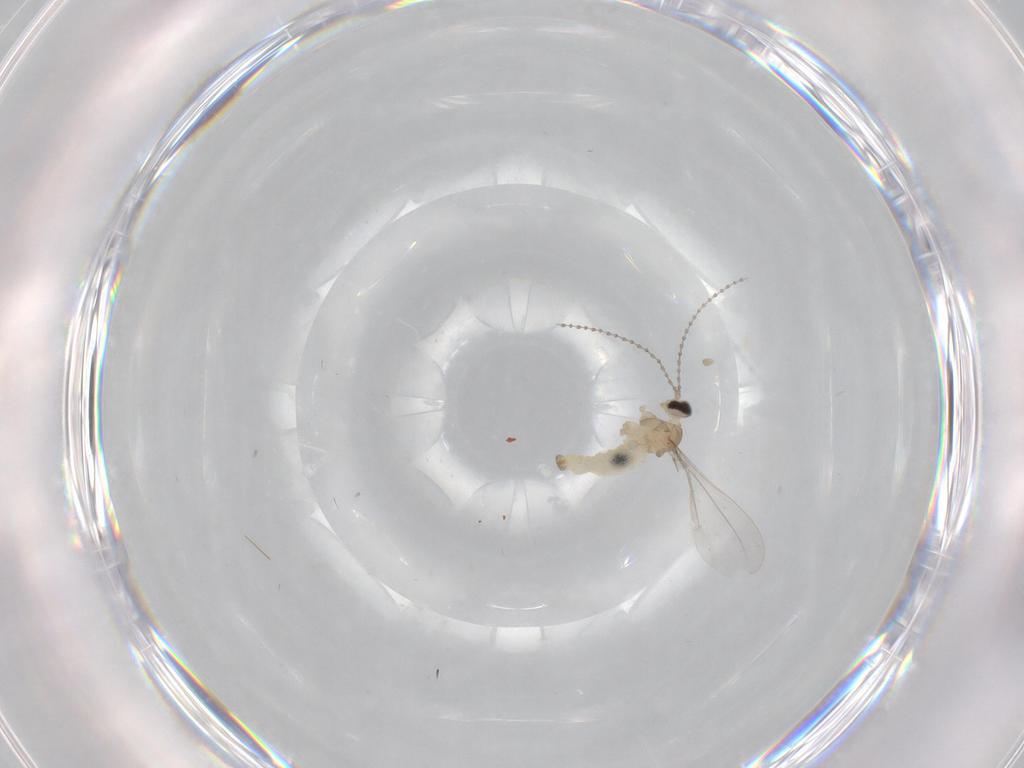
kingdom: Animalia
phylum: Arthropoda
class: Insecta
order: Diptera
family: Cecidomyiidae
